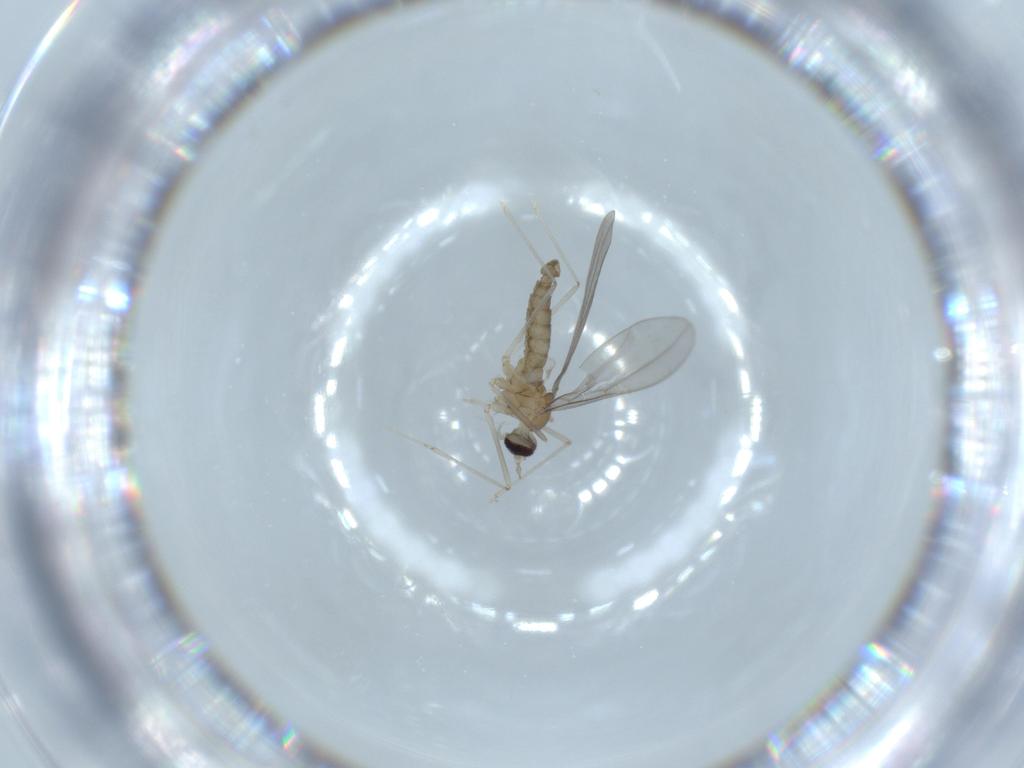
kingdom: Animalia
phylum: Arthropoda
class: Insecta
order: Diptera
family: Cecidomyiidae
